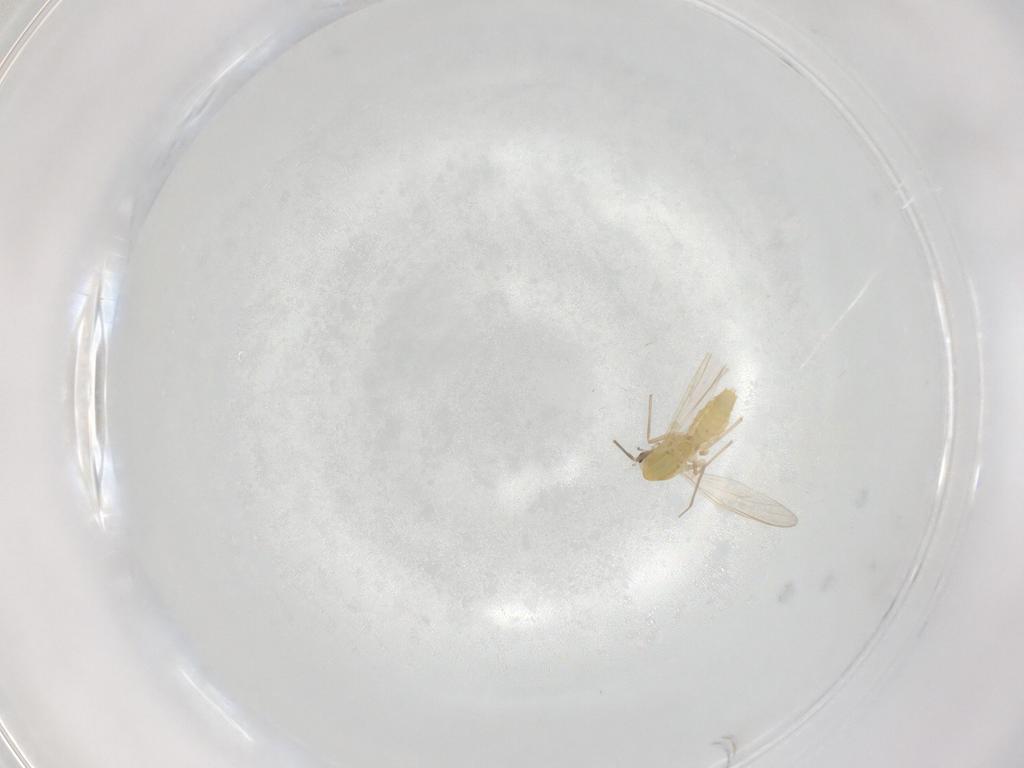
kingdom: Animalia
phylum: Arthropoda
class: Insecta
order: Diptera
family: Chironomidae
